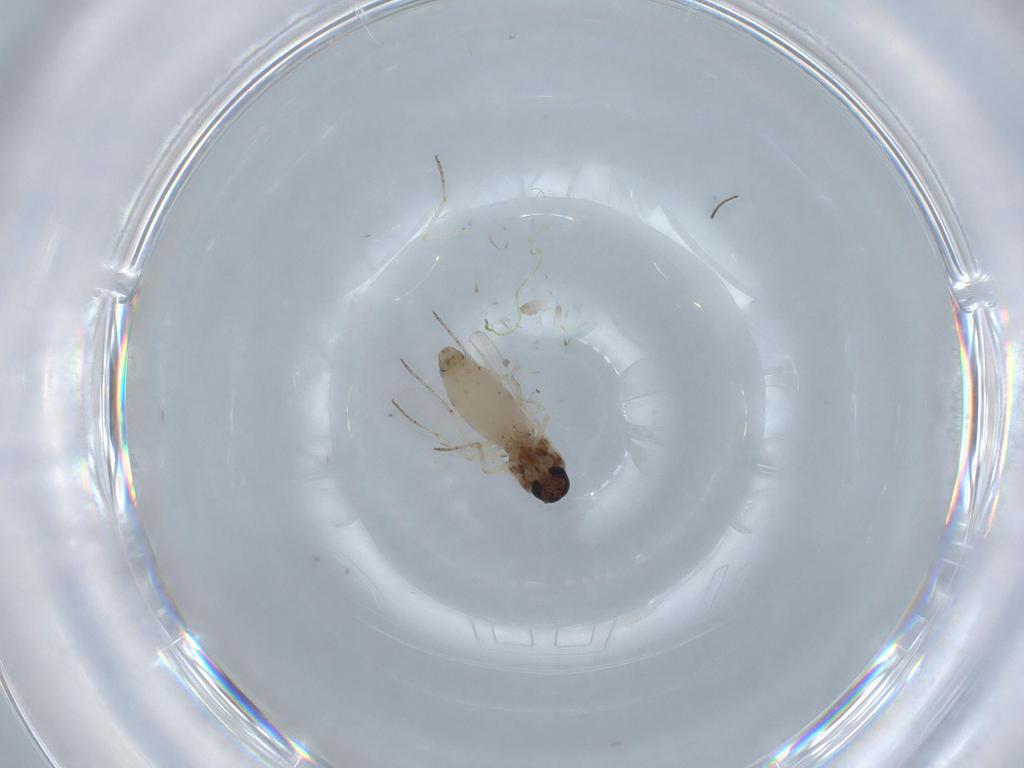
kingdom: Animalia
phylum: Arthropoda
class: Insecta
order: Diptera
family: Ceratopogonidae
